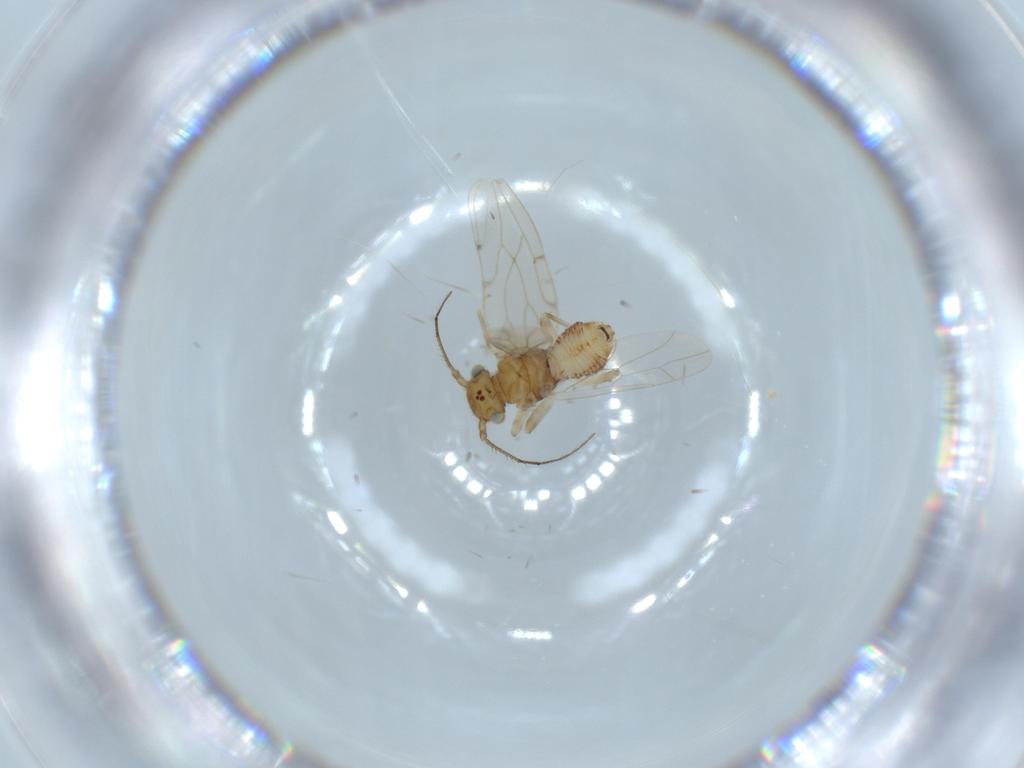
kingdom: Animalia
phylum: Arthropoda
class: Insecta
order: Psocodea
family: Ectopsocidae
